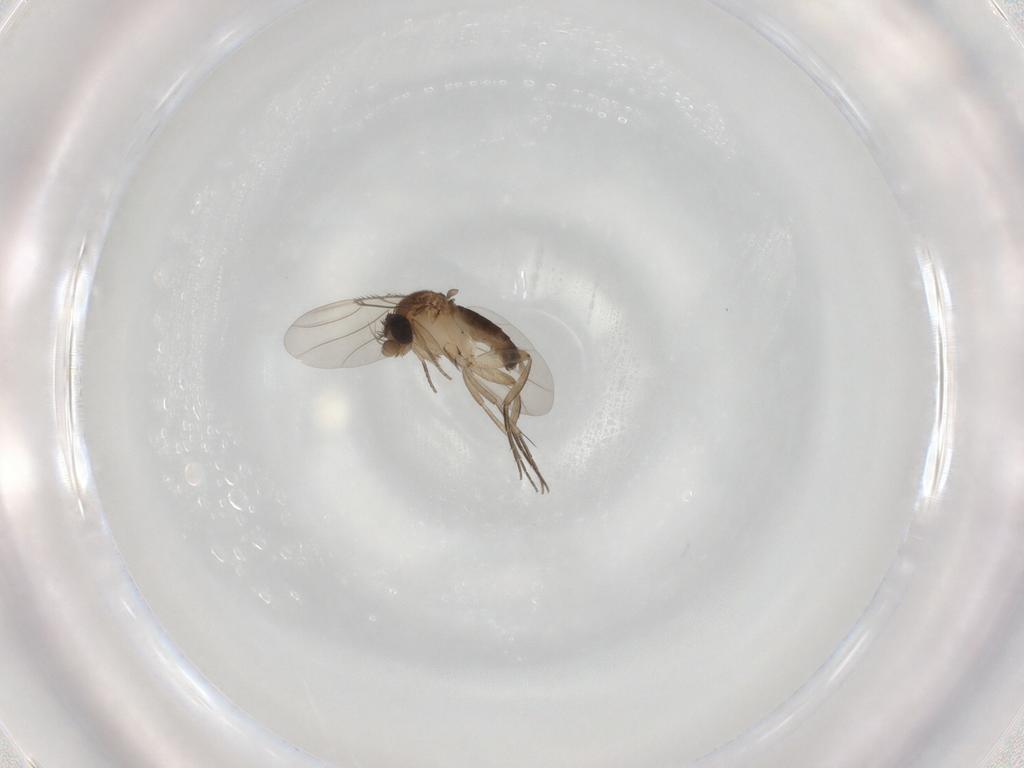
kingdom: Animalia
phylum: Arthropoda
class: Insecta
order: Diptera
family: Phoridae
